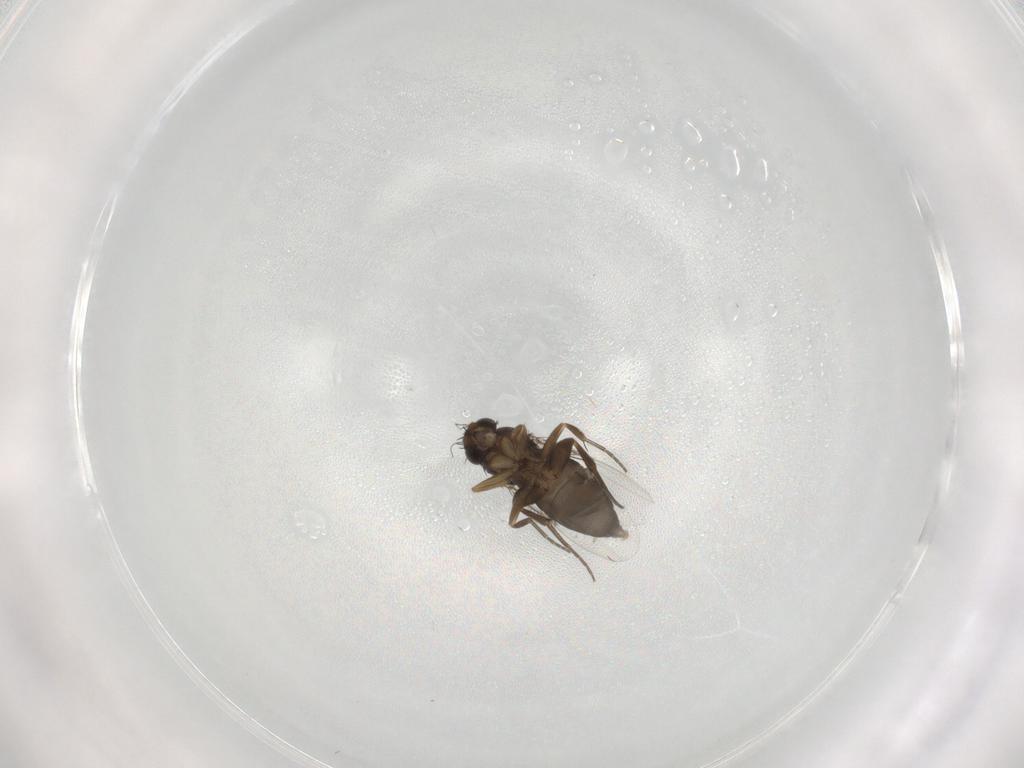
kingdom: Animalia
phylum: Arthropoda
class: Insecta
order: Diptera
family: Phoridae
